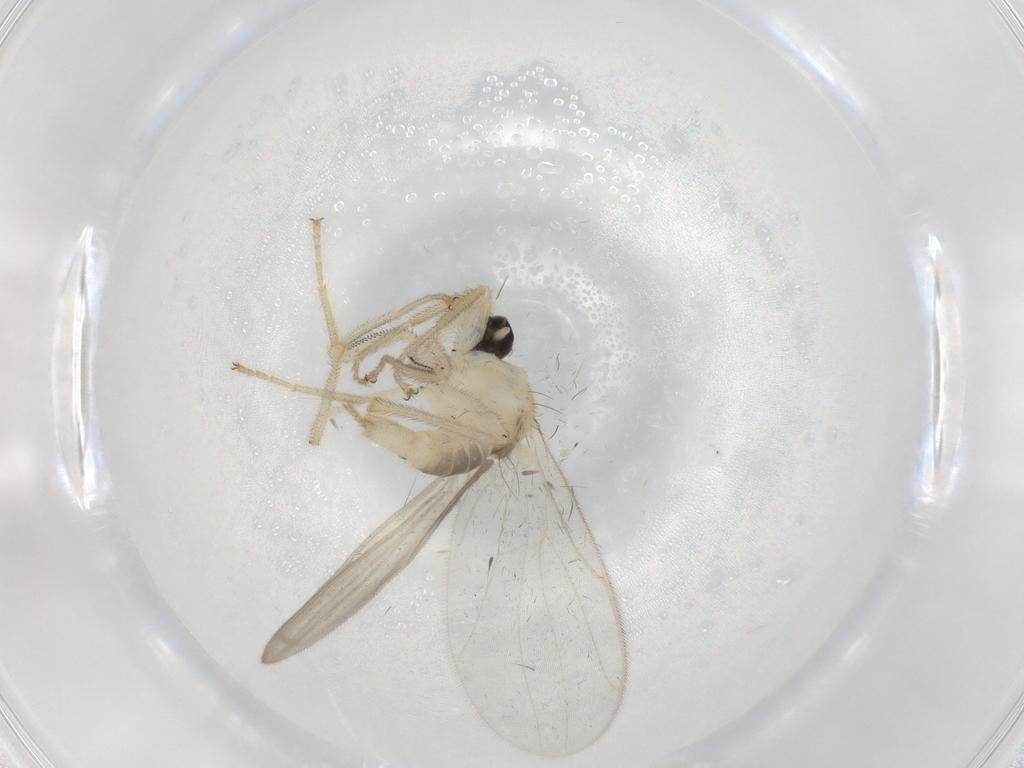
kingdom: Animalia
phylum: Arthropoda
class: Insecta
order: Diptera
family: Hybotidae
